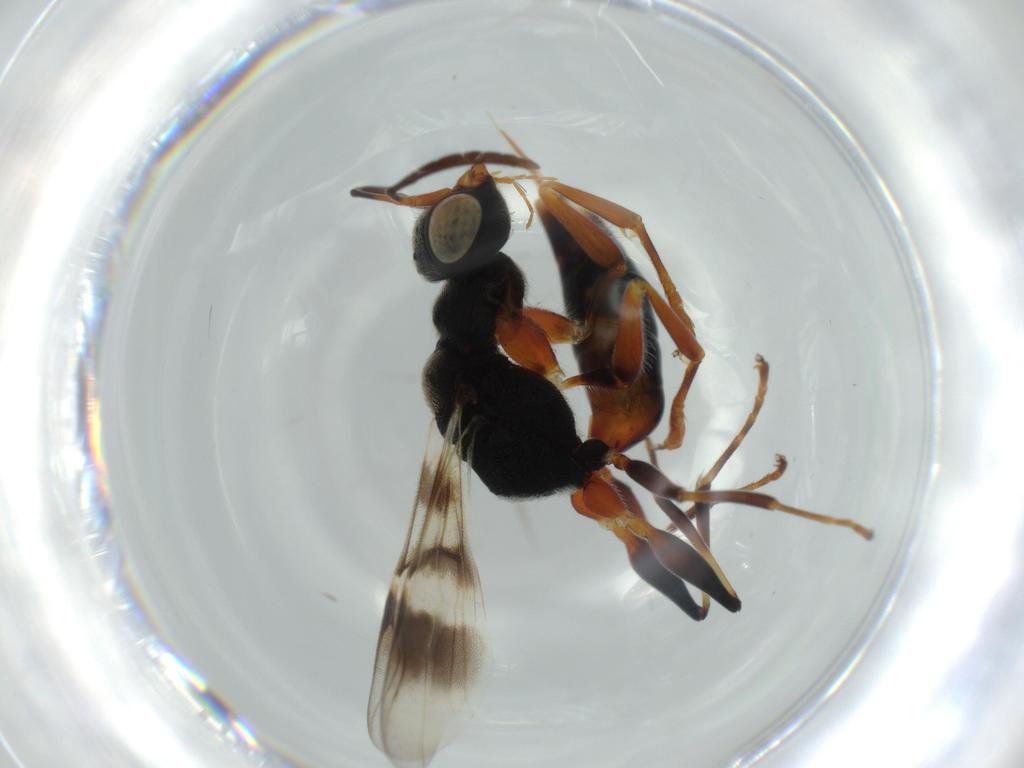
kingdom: Animalia
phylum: Arthropoda
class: Insecta
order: Hymenoptera
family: Dryinidae
